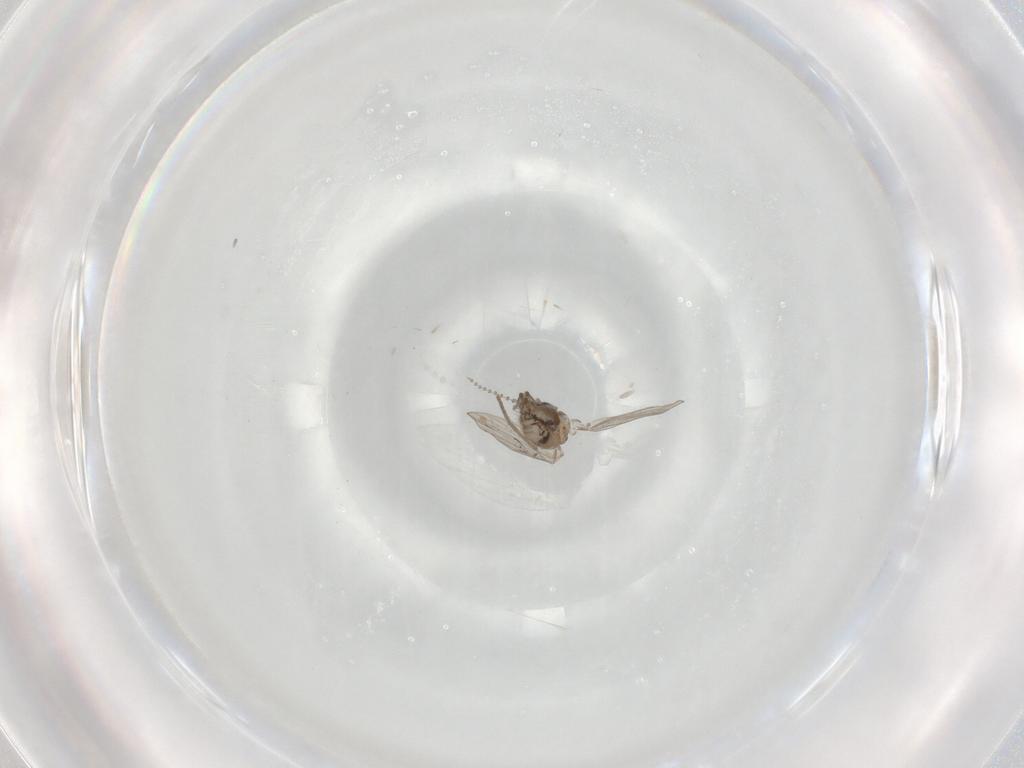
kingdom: Animalia
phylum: Arthropoda
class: Insecta
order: Diptera
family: Psychodidae
